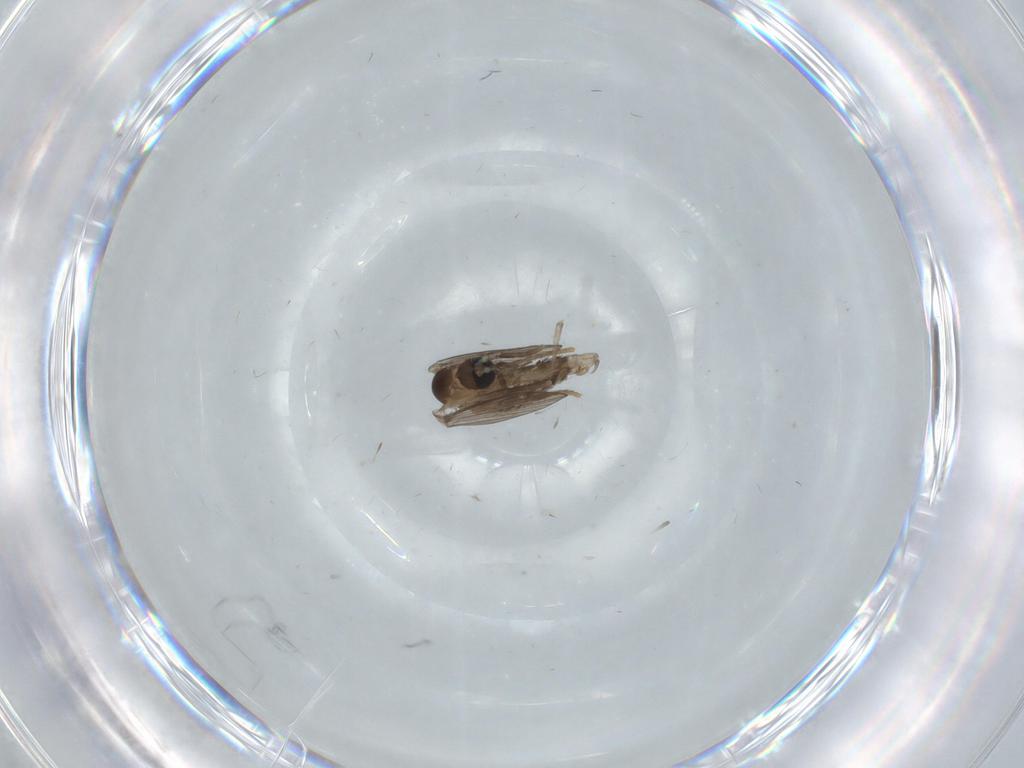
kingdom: Animalia
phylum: Arthropoda
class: Insecta
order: Diptera
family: Psychodidae
